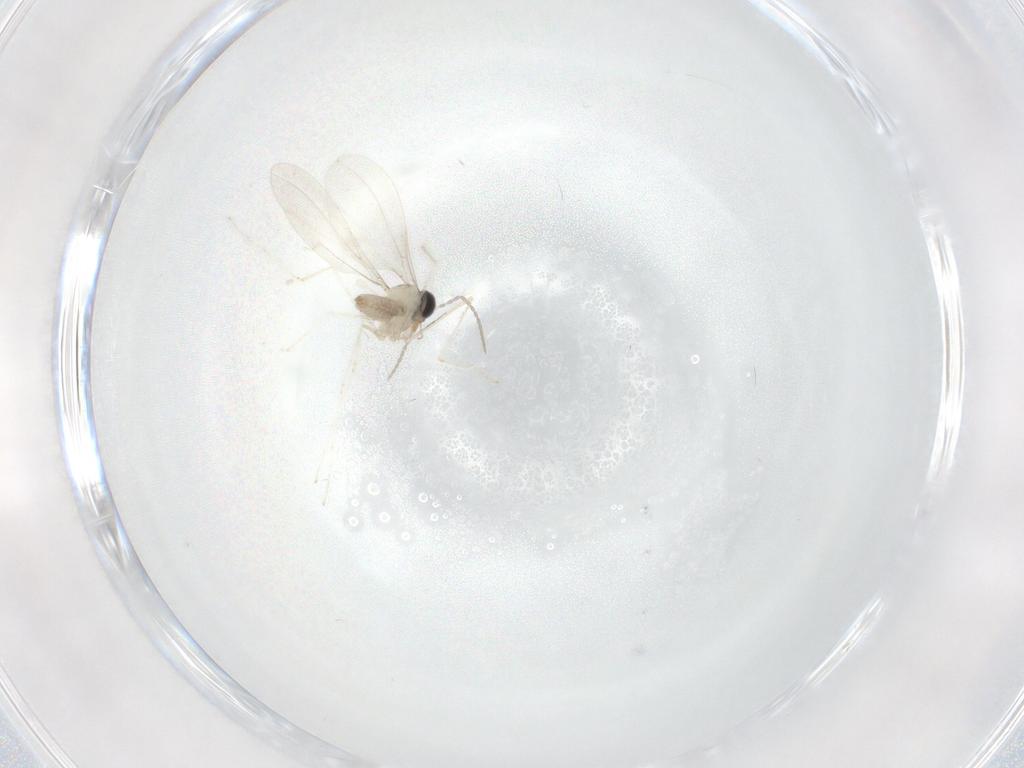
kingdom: Animalia
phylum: Arthropoda
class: Insecta
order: Diptera
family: Cecidomyiidae
